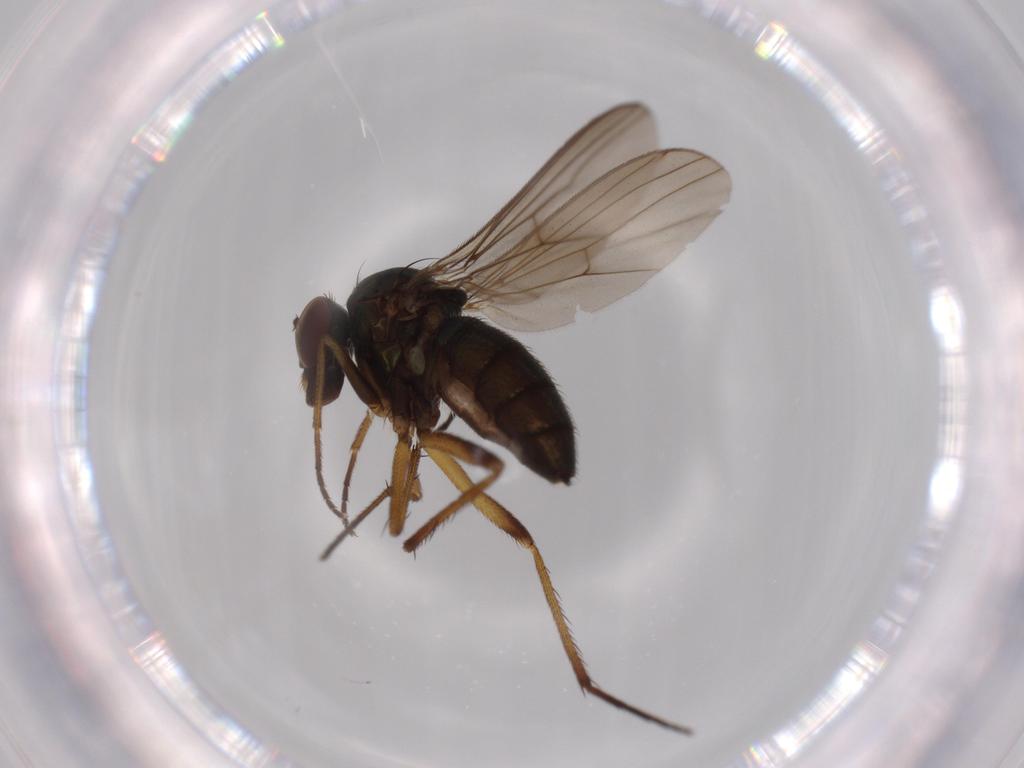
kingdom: Animalia
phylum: Arthropoda
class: Insecta
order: Diptera
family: Dolichopodidae
